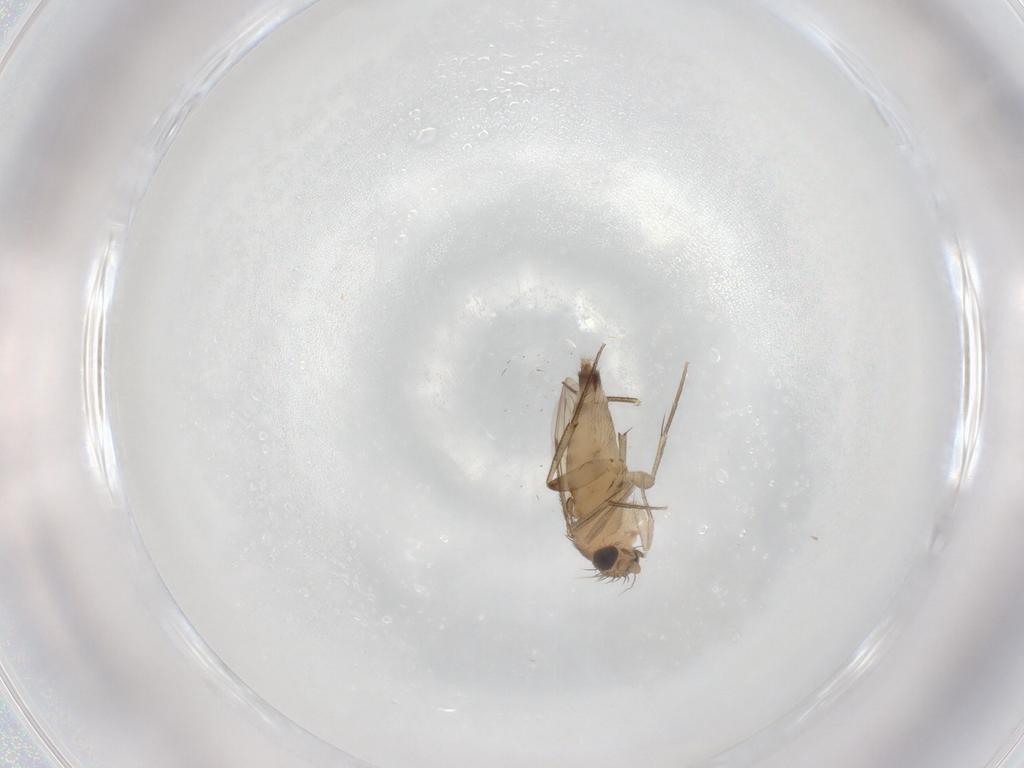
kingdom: Animalia
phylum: Arthropoda
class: Insecta
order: Diptera
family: Phoridae
